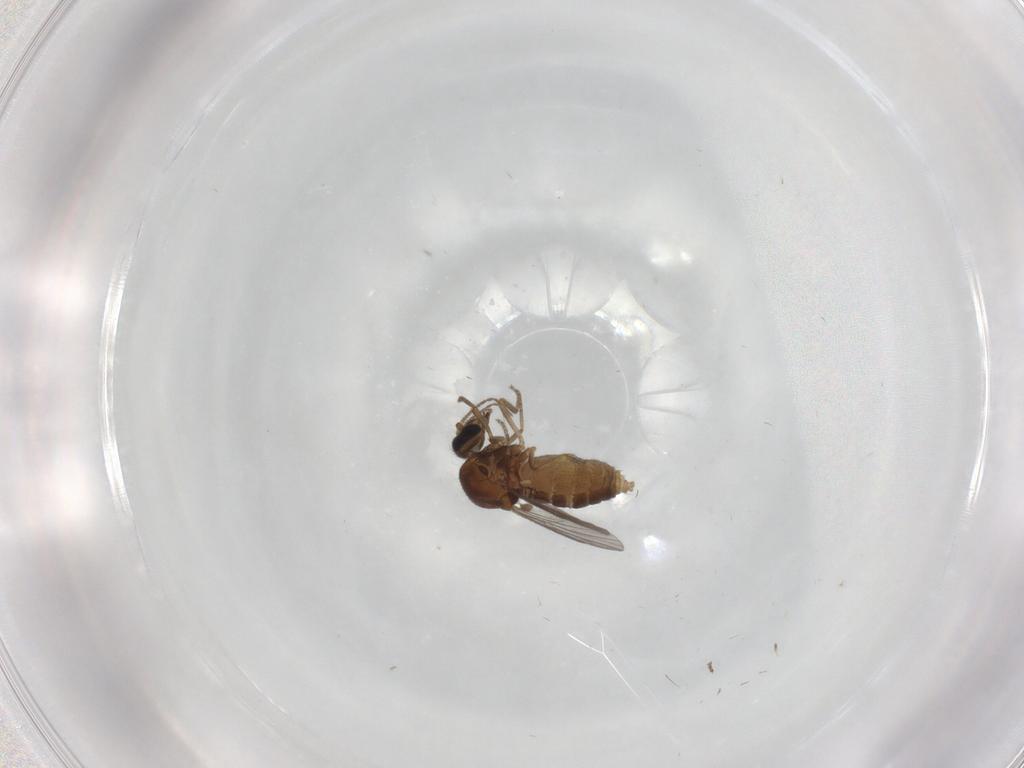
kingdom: Animalia
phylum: Arthropoda
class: Insecta
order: Diptera
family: Ceratopogonidae
